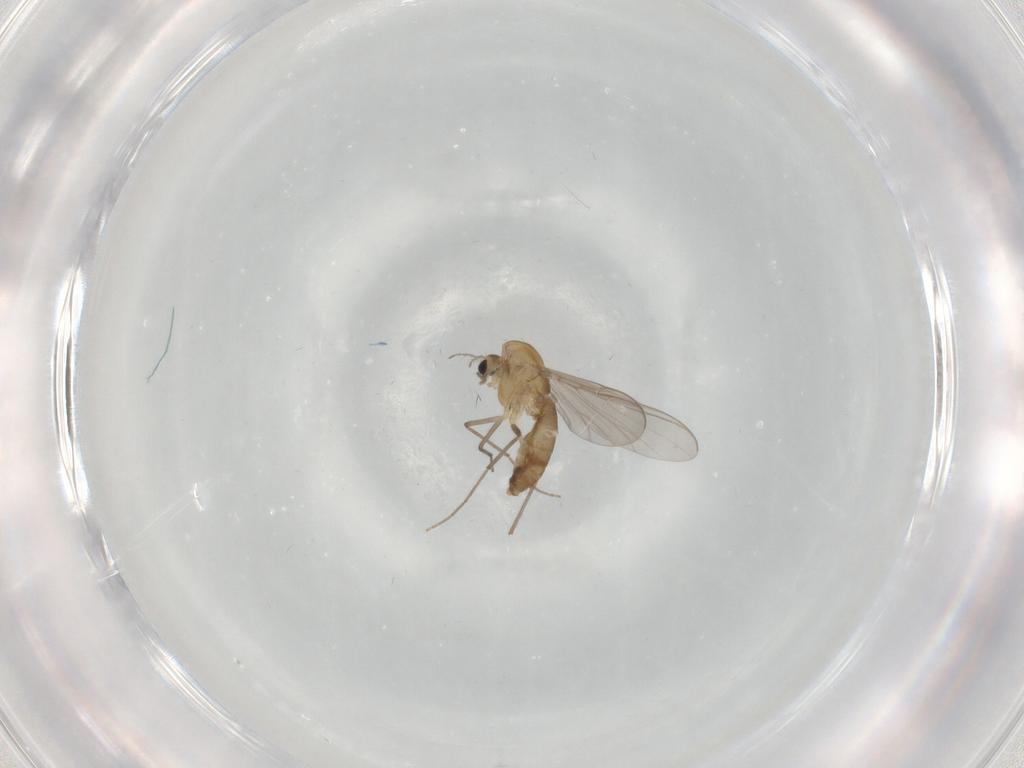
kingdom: Animalia
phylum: Arthropoda
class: Insecta
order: Diptera
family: Chironomidae
